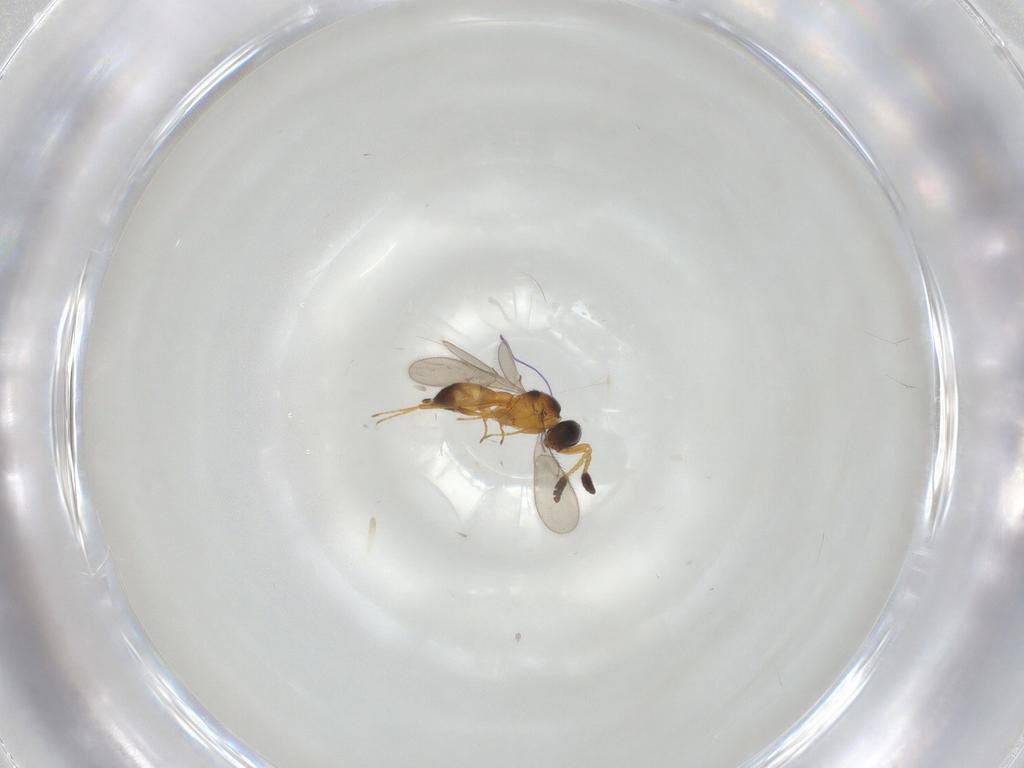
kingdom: Animalia
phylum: Arthropoda
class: Insecta
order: Hymenoptera
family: Scelionidae
